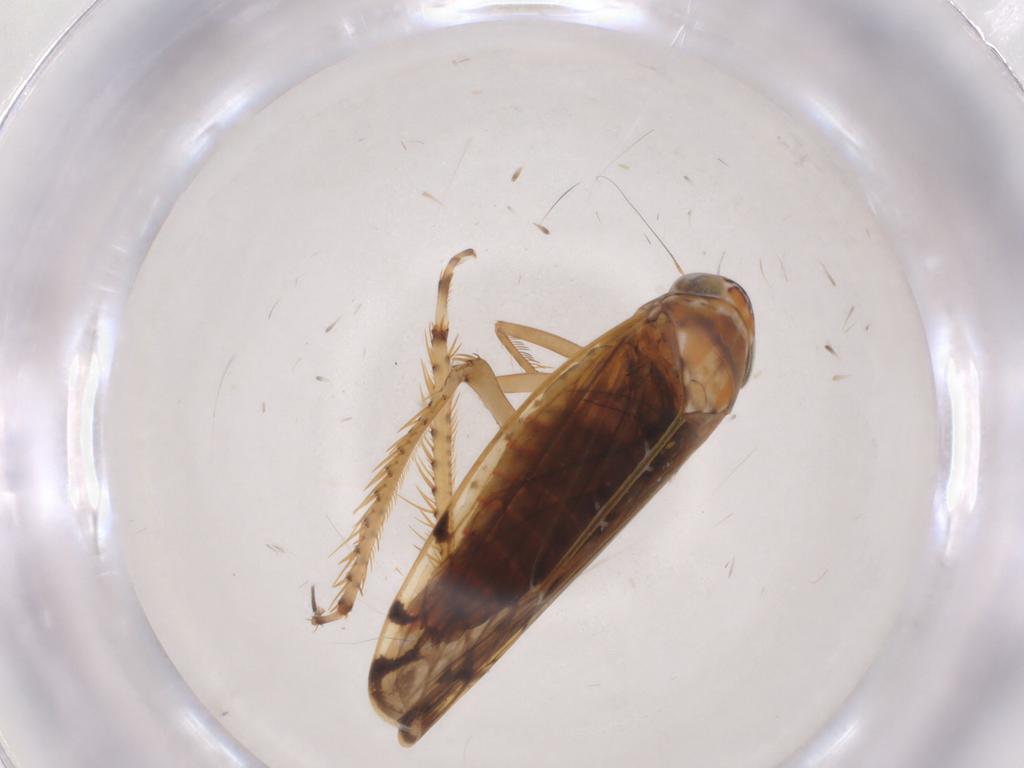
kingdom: Animalia
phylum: Arthropoda
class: Insecta
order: Hemiptera
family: Cicadellidae
